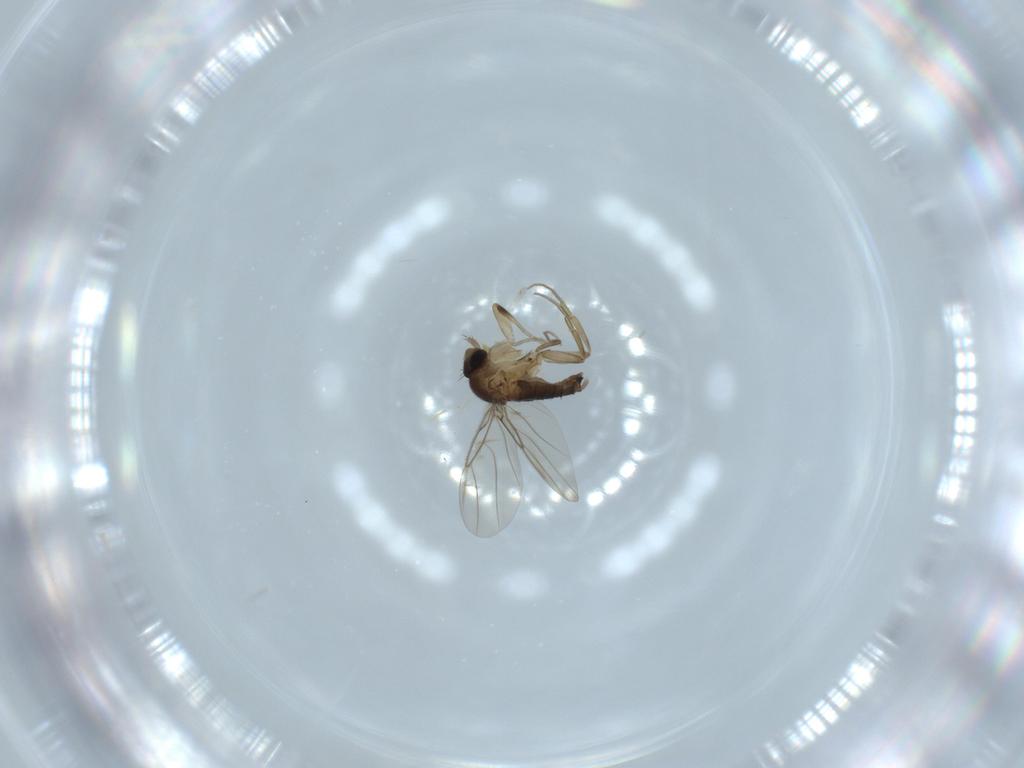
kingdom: Animalia
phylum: Arthropoda
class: Insecta
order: Diptera
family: Phoridae
